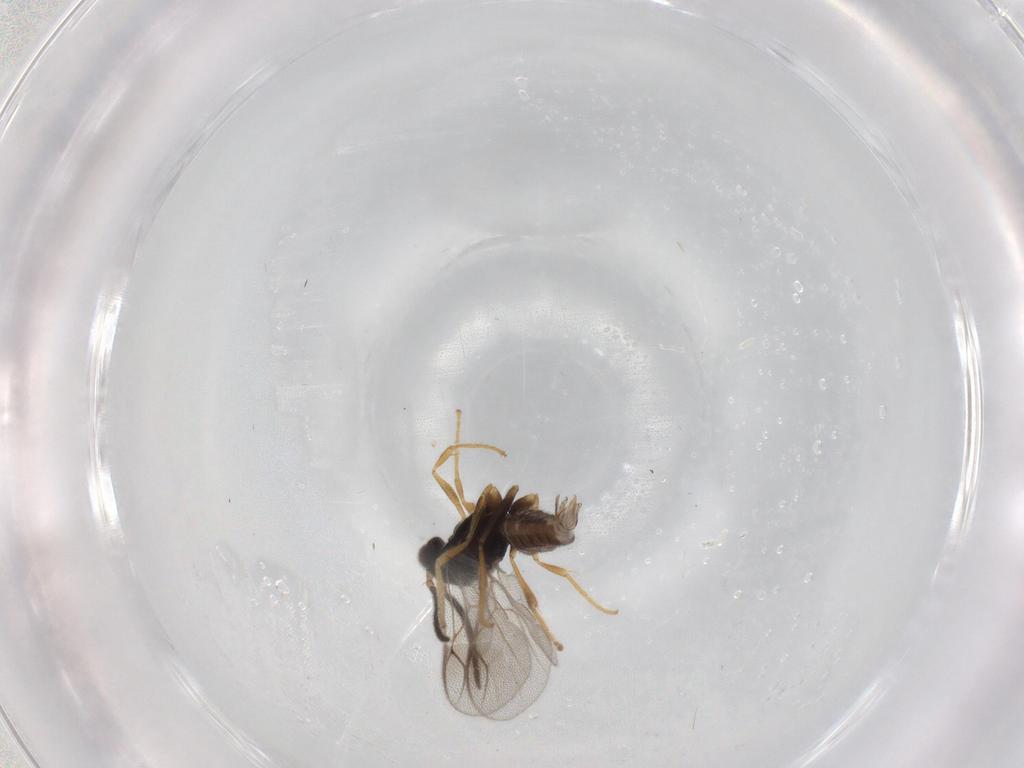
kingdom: Animalia
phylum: Arthropoda
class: Insecta
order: Hymenoptera
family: Dryinidae
